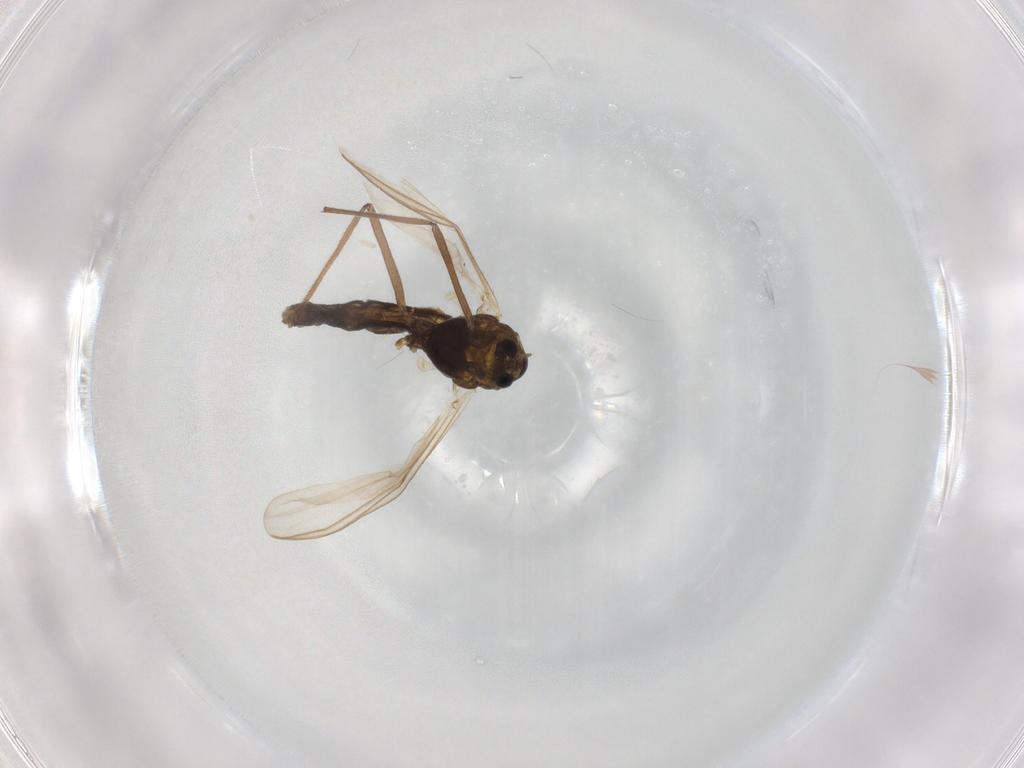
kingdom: Animalia
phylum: Arthropoda
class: Insecta
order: Diptera
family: Chironomidae
